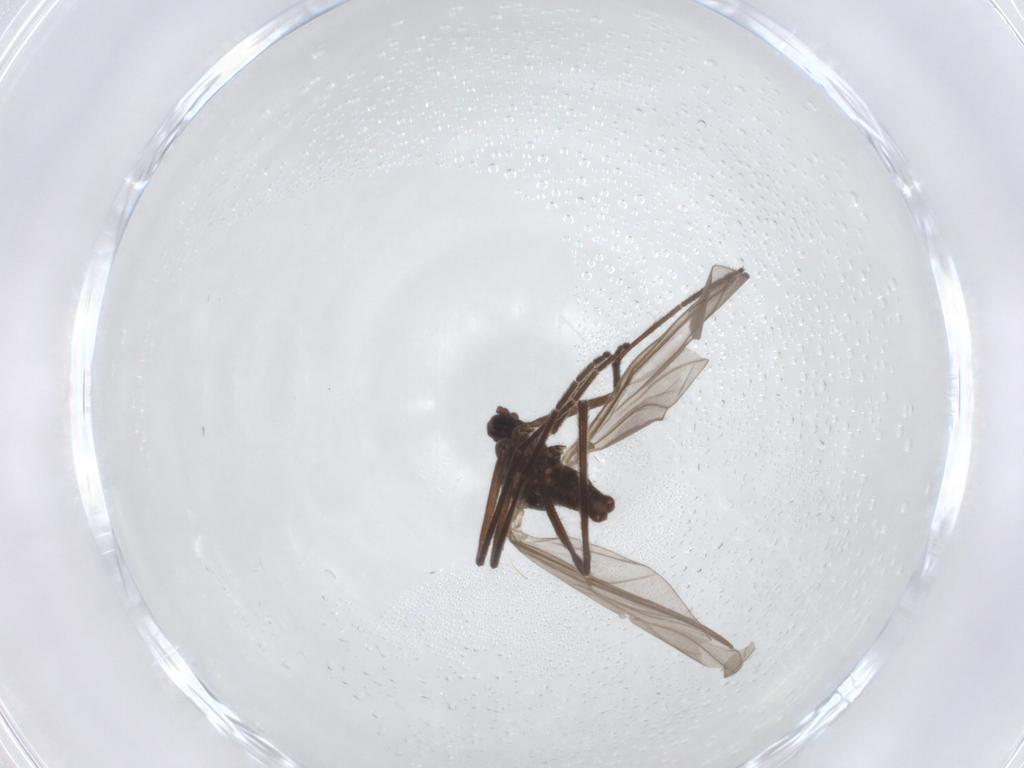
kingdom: Animalia
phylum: Arthropoda
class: Insecta
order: Diptera
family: Cecidomyiidae
